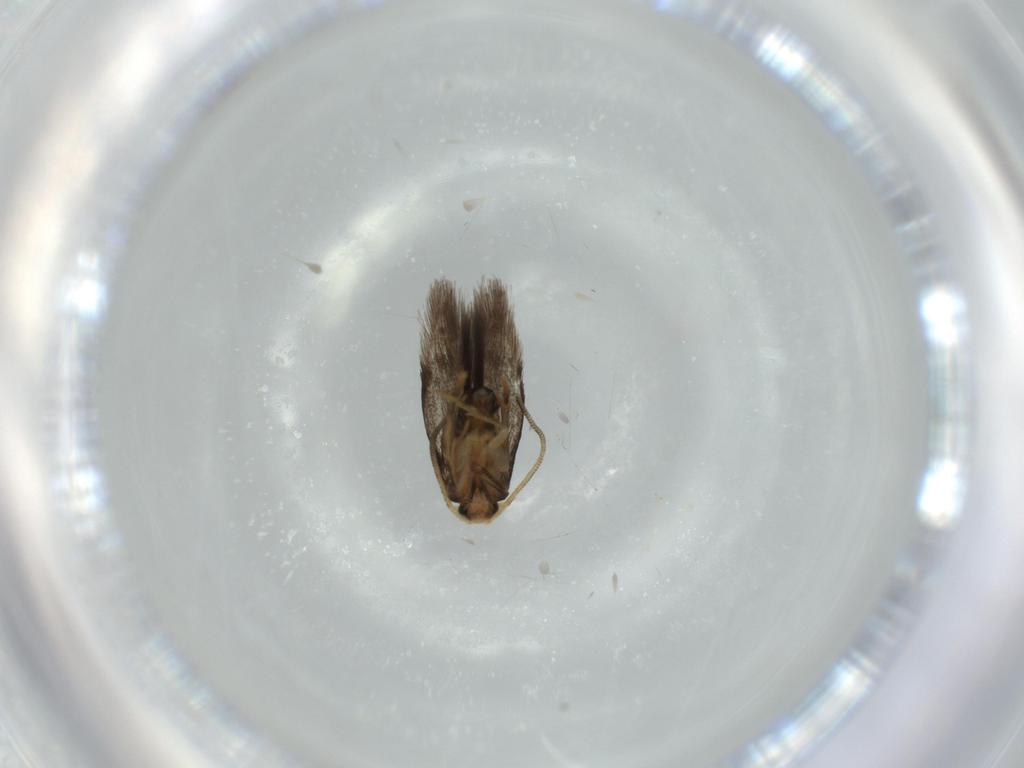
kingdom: Animalia
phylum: Arthropoda
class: Insecta
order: Lepidoptera
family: Nepticulidae
